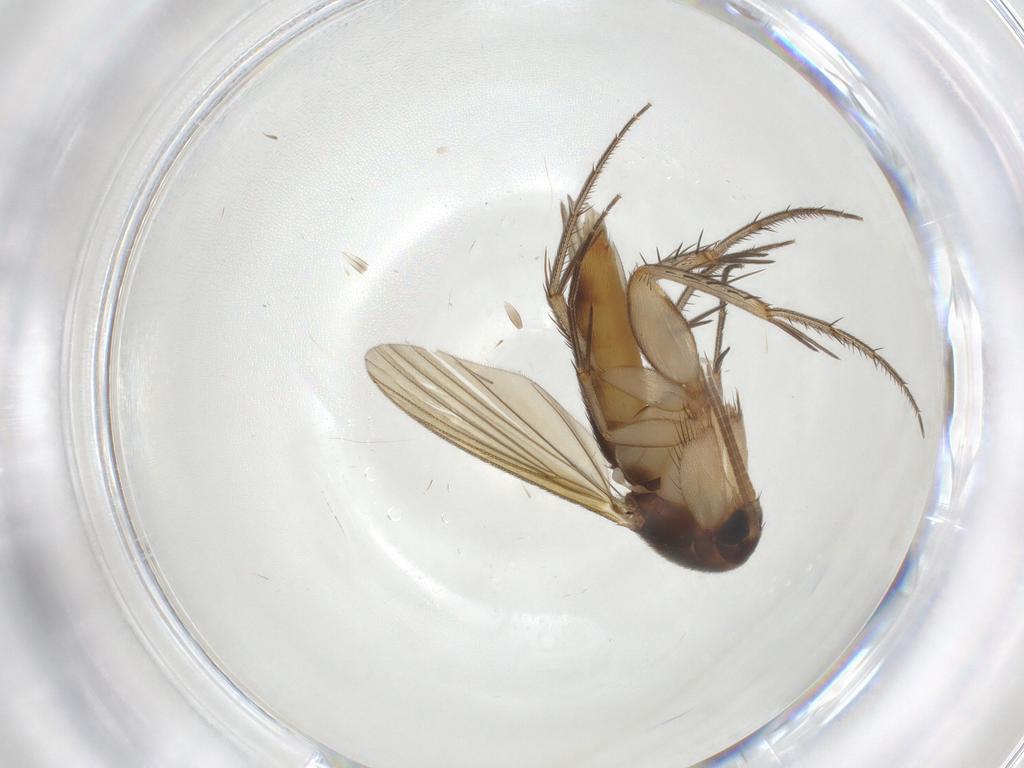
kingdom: Animalia
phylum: Arthropoda
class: Insecta
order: Diptera
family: Mycetophilidae
